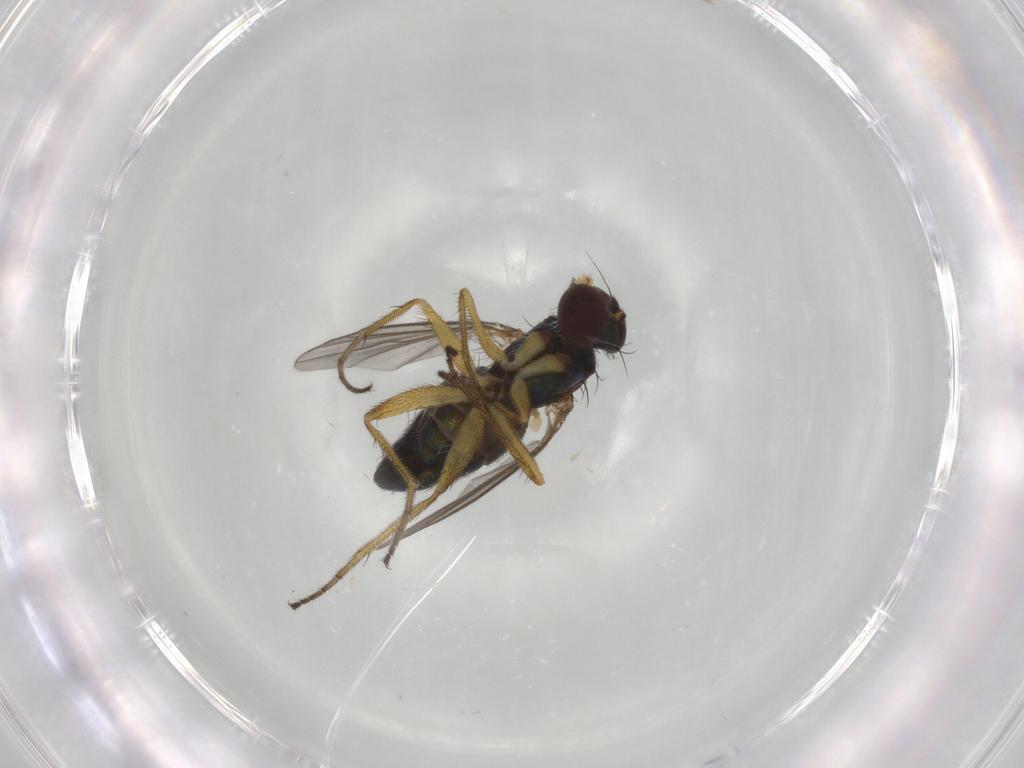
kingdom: Animalia
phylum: Arthropoda
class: Insecta
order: Diptera
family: Dolichopodidae
